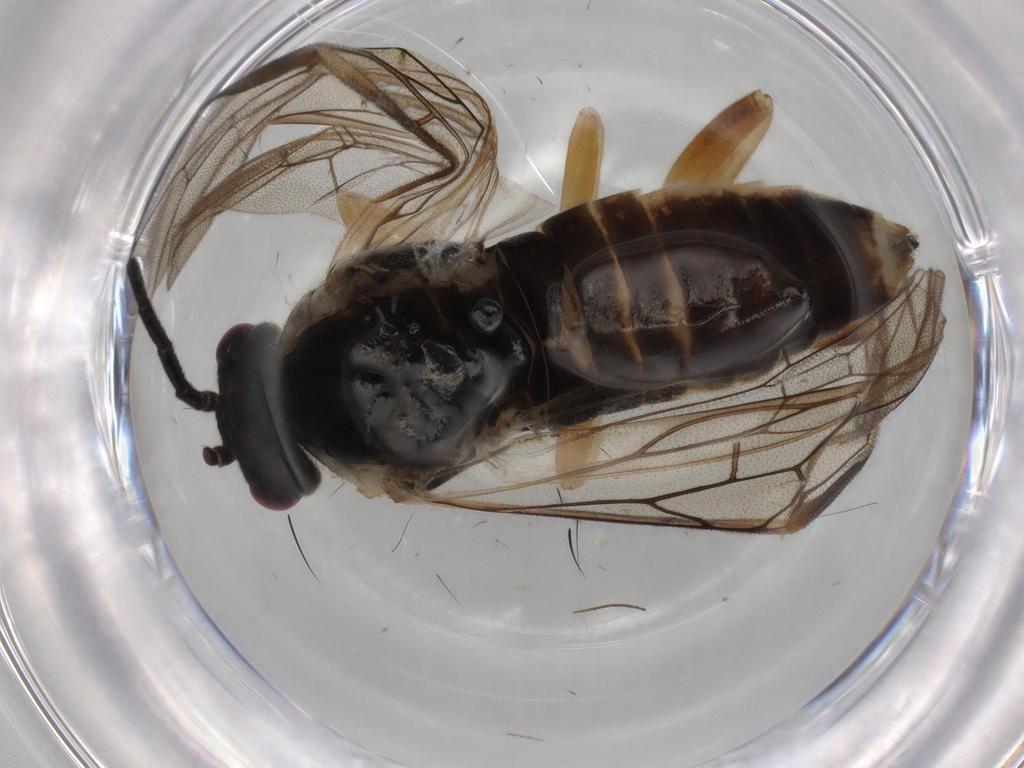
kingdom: Animalia
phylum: Arthropoda
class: Insecta
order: Hymenoptera
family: Tenthredinidae
